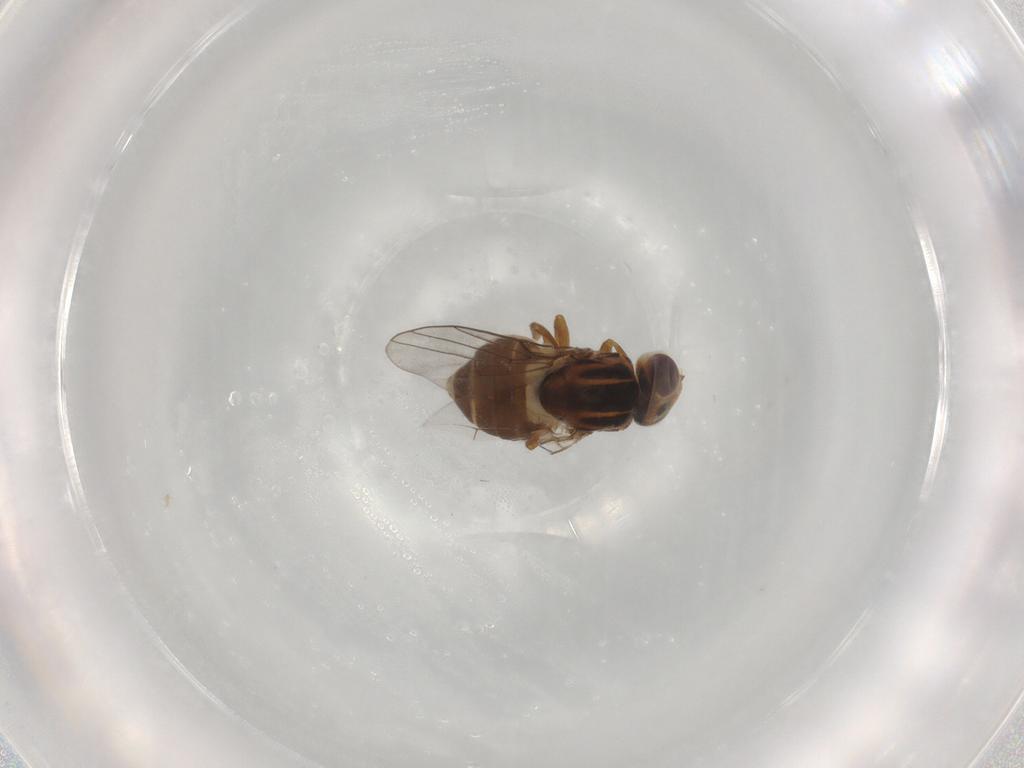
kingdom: Animalia
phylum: Arthropoda
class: Insecta
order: Diptera
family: Chloropidae
